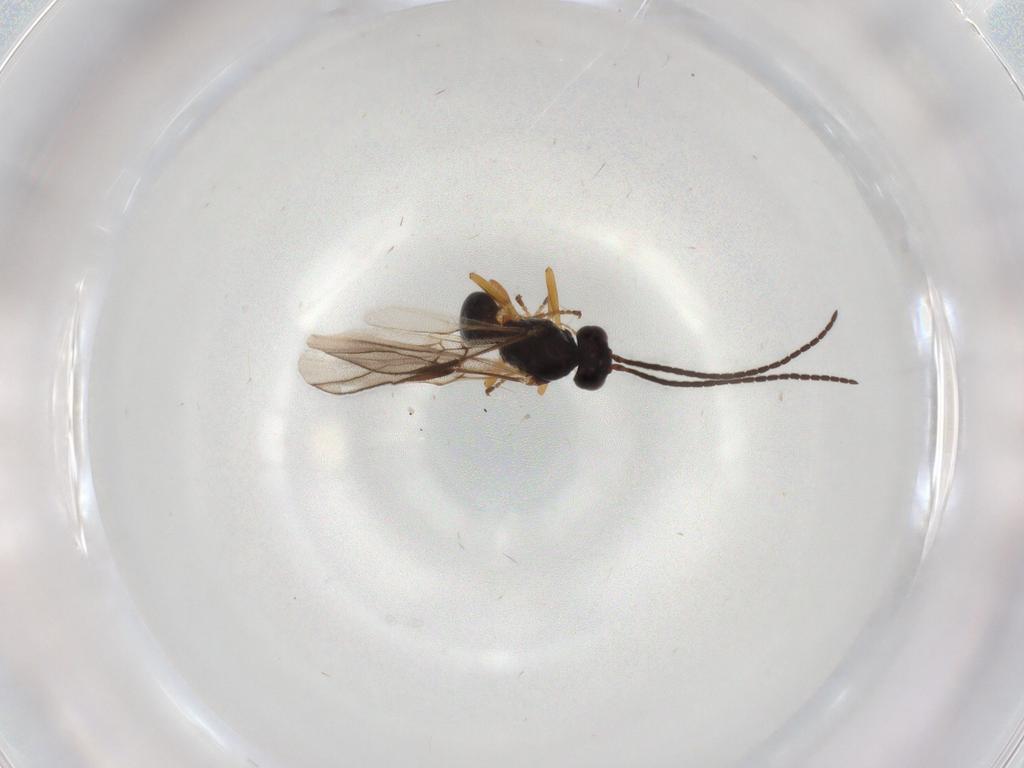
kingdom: Animalia
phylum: Arthropoda
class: Insecta
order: Hymenoptera
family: Braconidae
